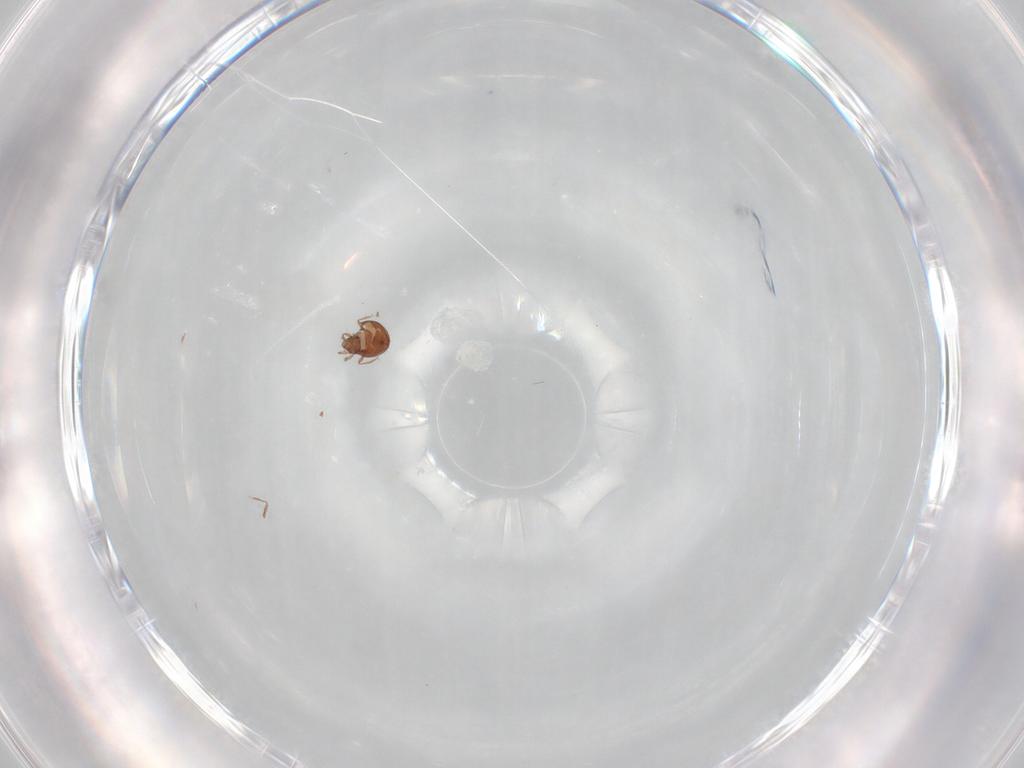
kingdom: Animalia
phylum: Arthropoda
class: Arachnida
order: Sarcoptiformes
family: Oribatulidae
